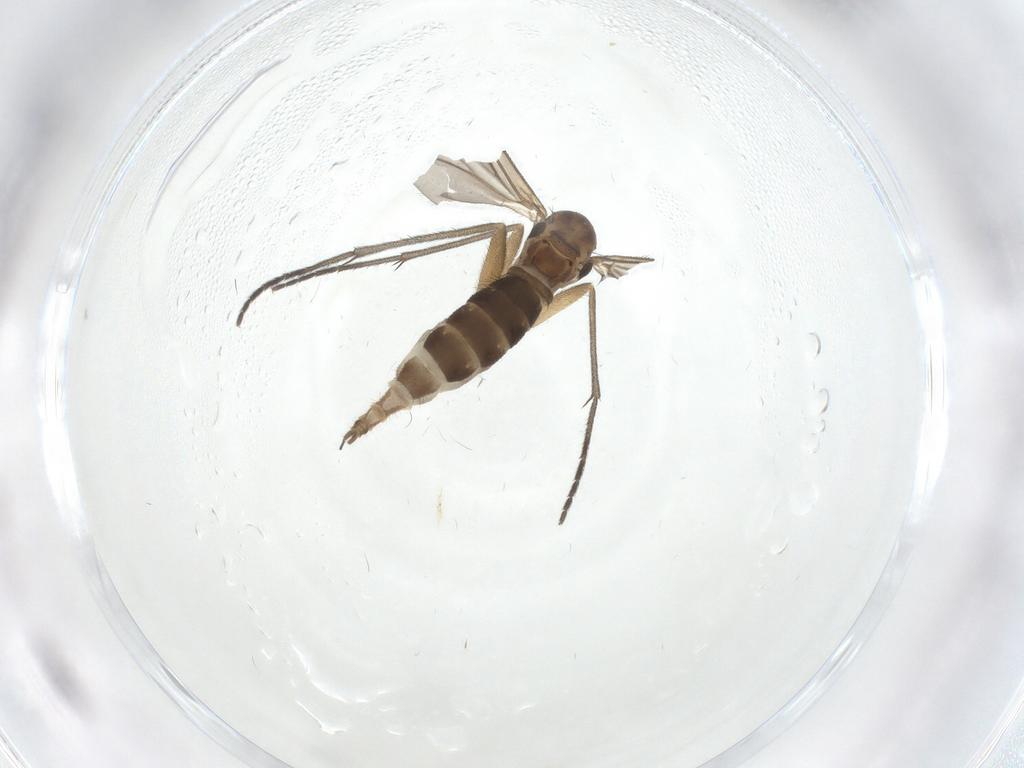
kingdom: Animalia
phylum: Arthropoda
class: Insecta
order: Diptera
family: Sciaridae
